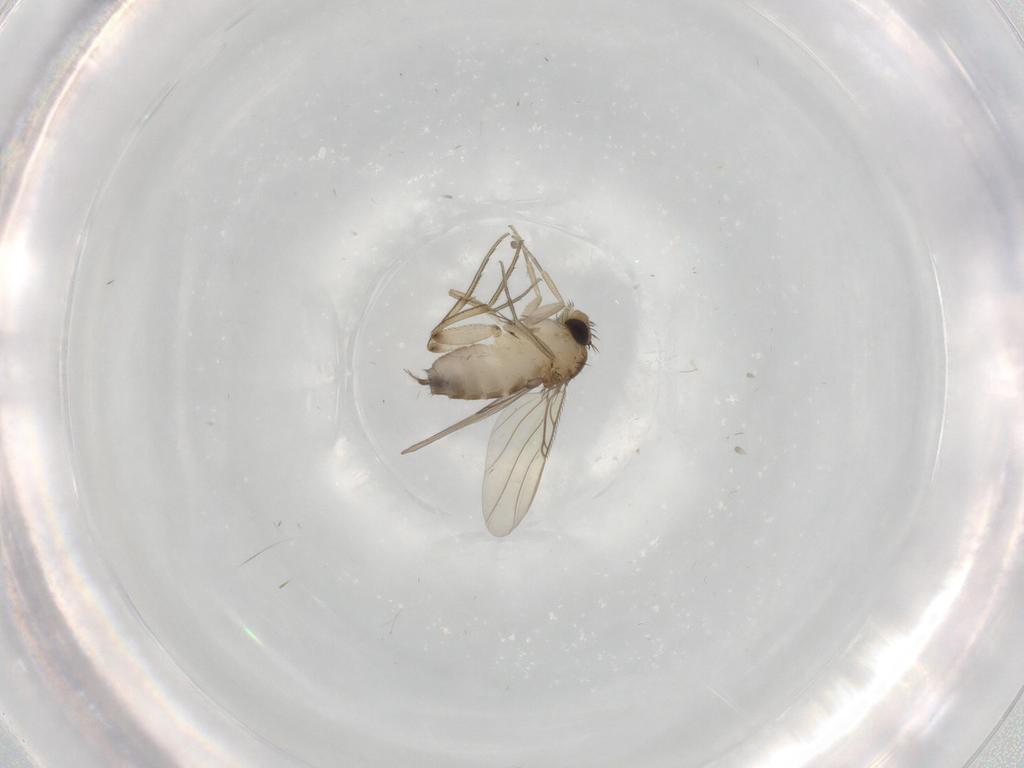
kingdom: Animalia
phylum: Arthropoda
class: Insecta
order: Diptera
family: Phoridae
